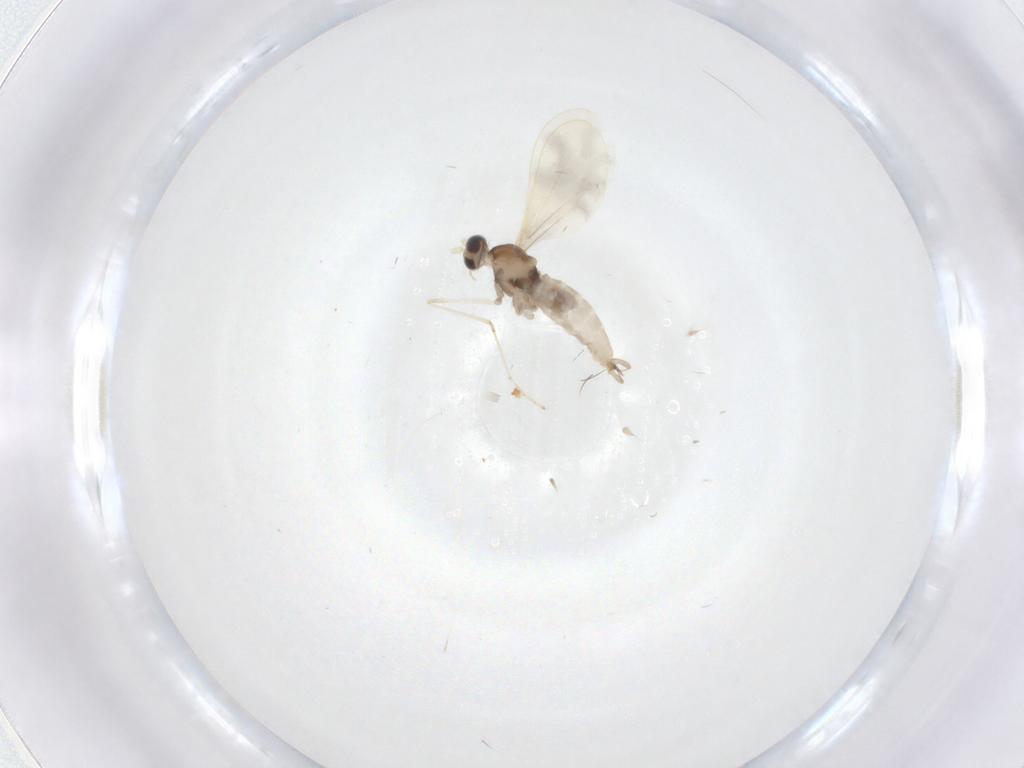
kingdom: Animalia
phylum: Arthropoda
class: Insecta
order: Diptera
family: Cecidomyiidae
